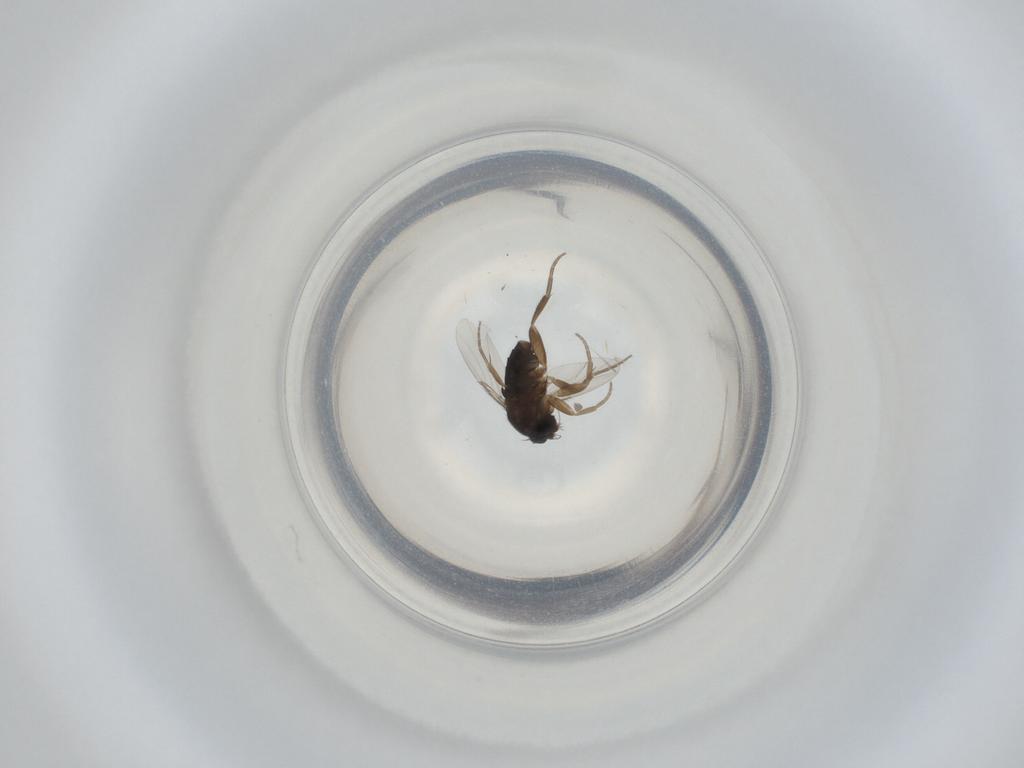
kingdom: Animalia
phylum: Arthropoda
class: Insecta
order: Diptera
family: Phoridae
